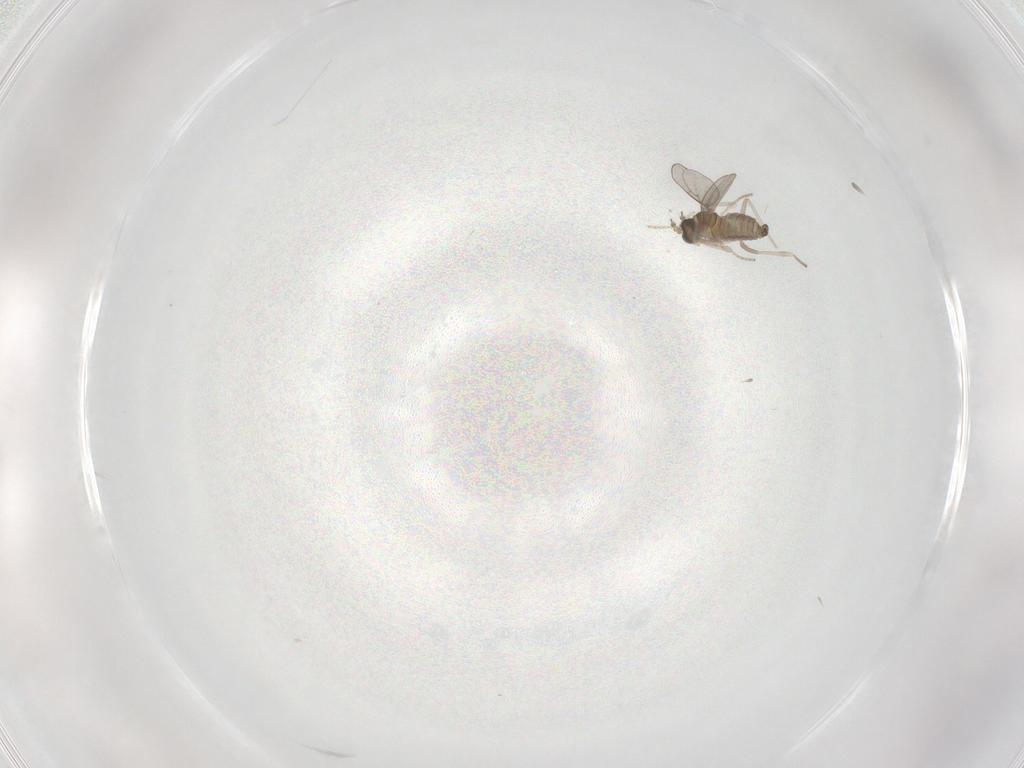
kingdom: Animalia
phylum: Arthropoda
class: Insecta
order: Diptera
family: Cecidomyiidae
